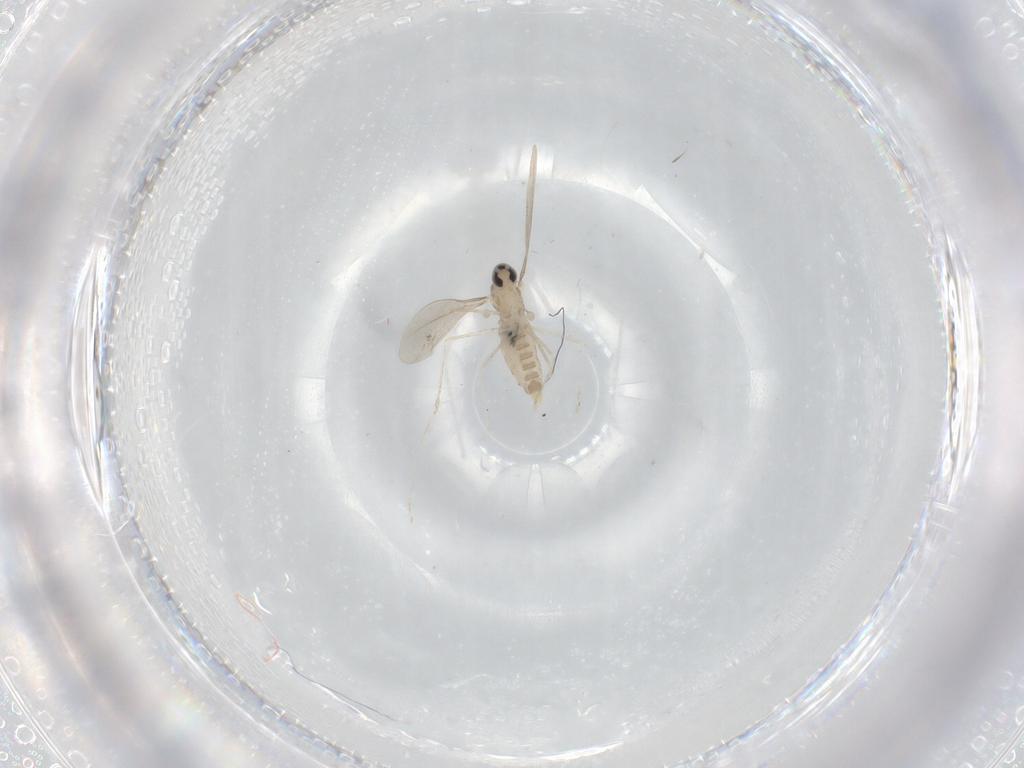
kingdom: Animalia
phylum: Arthropoda
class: Insecta
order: Diptera
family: Cecidomyiidae
